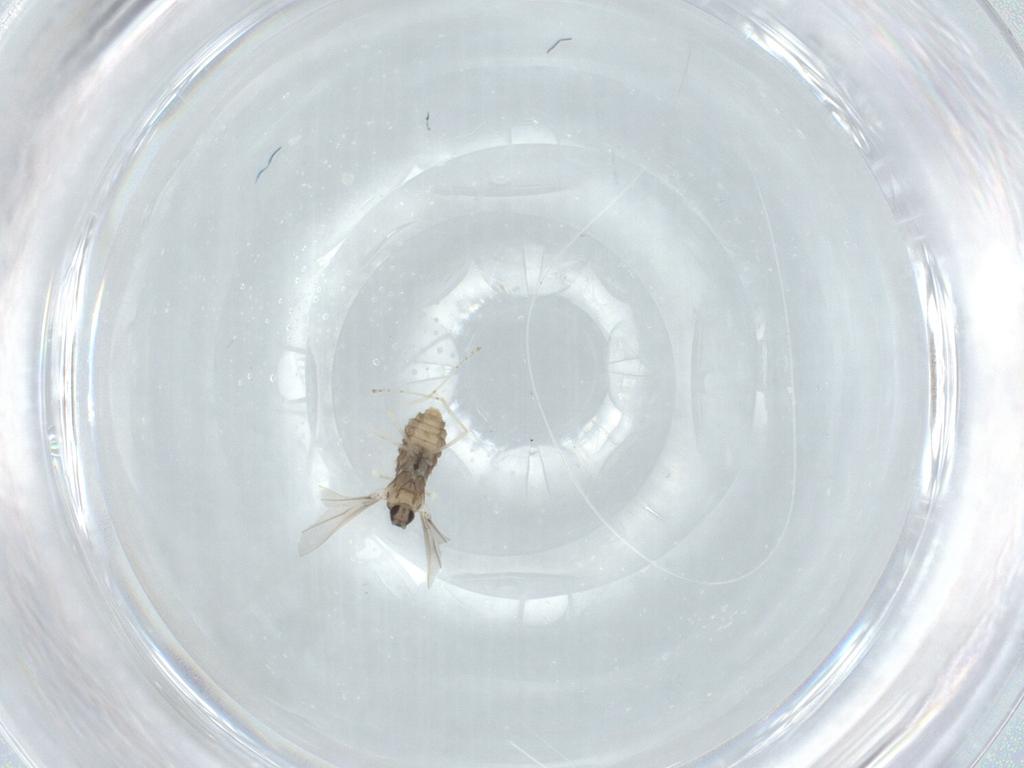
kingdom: Animalia
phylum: Arthropoda
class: Insecta
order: Diptera
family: Cecidomyiidae
